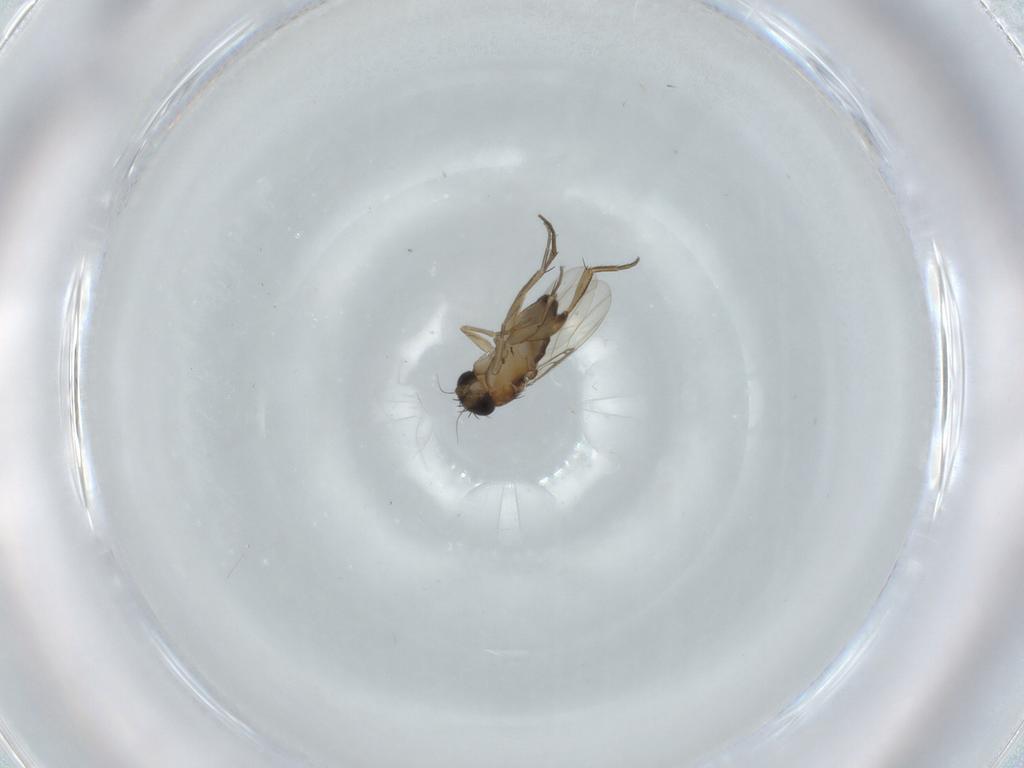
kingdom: Animalia
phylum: Arthropoda
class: Insecta
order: Diptera
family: Phoridae
